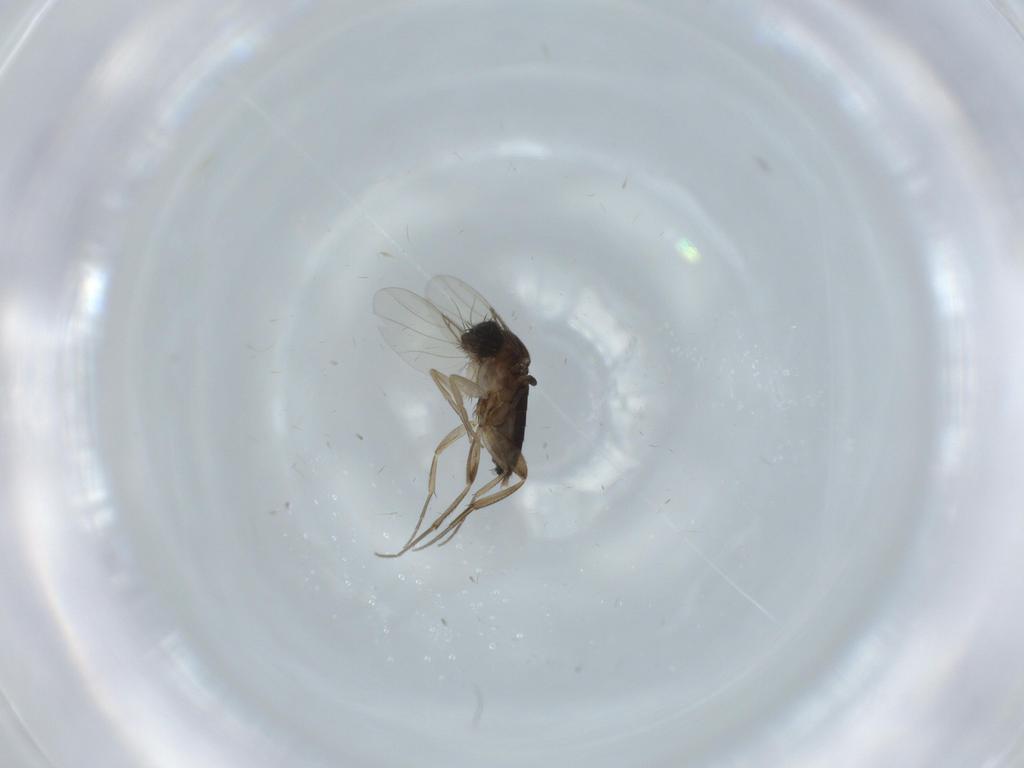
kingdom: Animalia
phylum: Arthropoda
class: Insecta
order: Diptera
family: Phoridae
